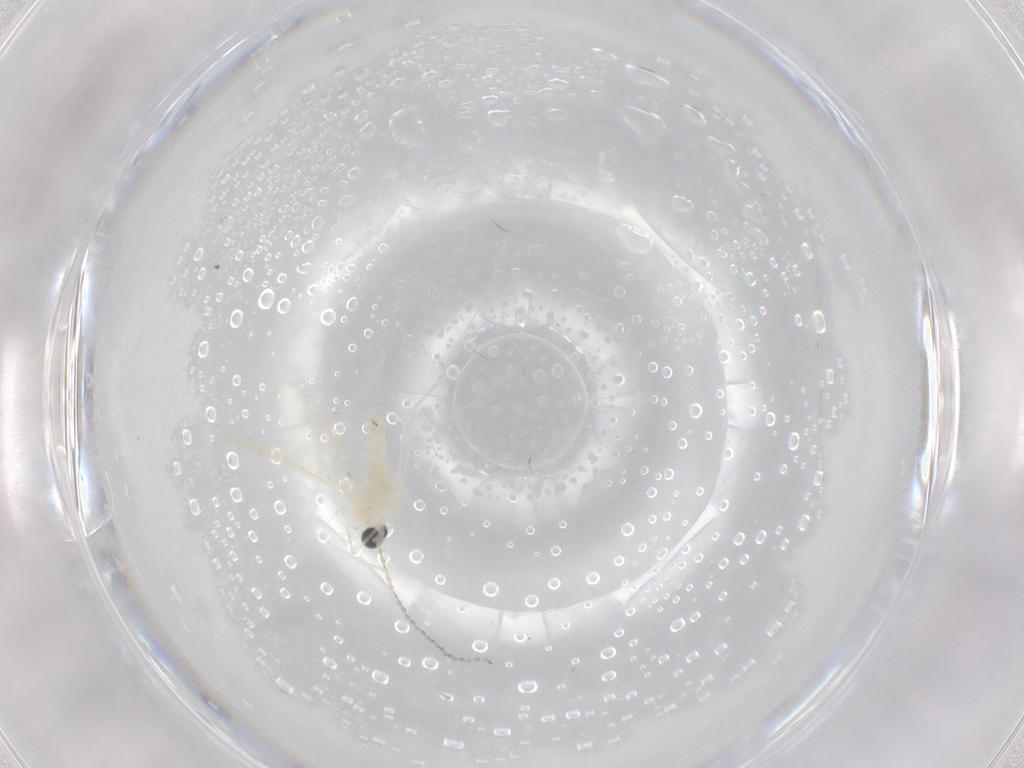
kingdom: Animalia
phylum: Arthropoda
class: Insecta
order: Diptera
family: Cecidomyiidae
